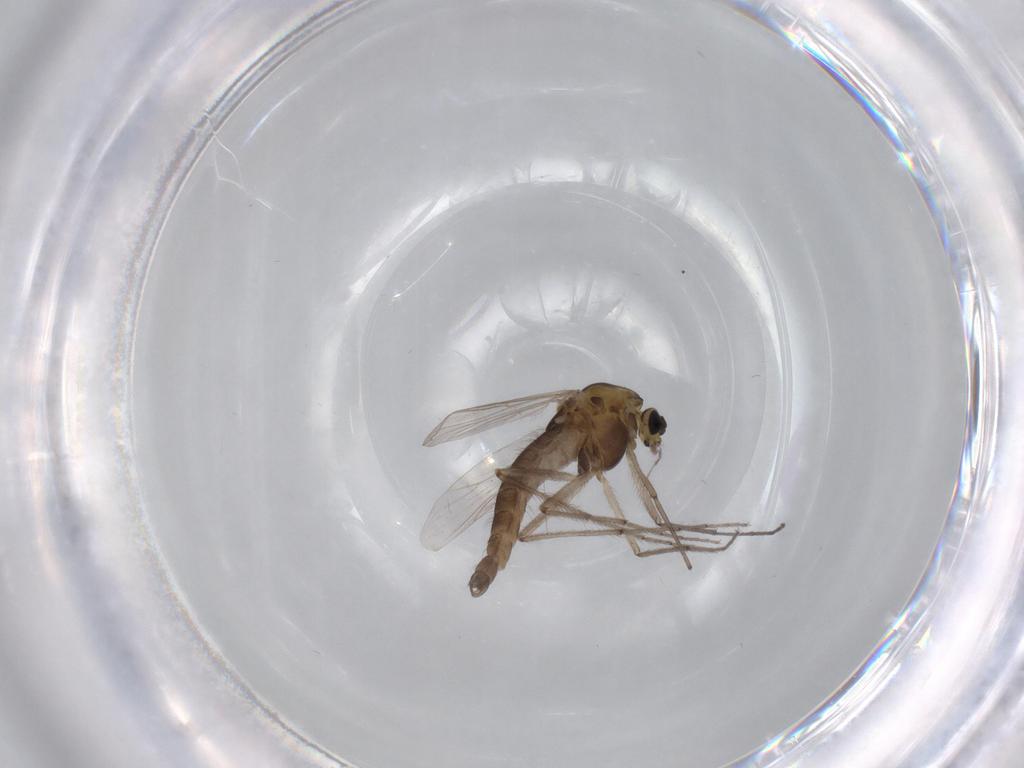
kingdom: Animalia
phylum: Arthropoda
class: Insecta
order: Diptera
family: Chironomidae
